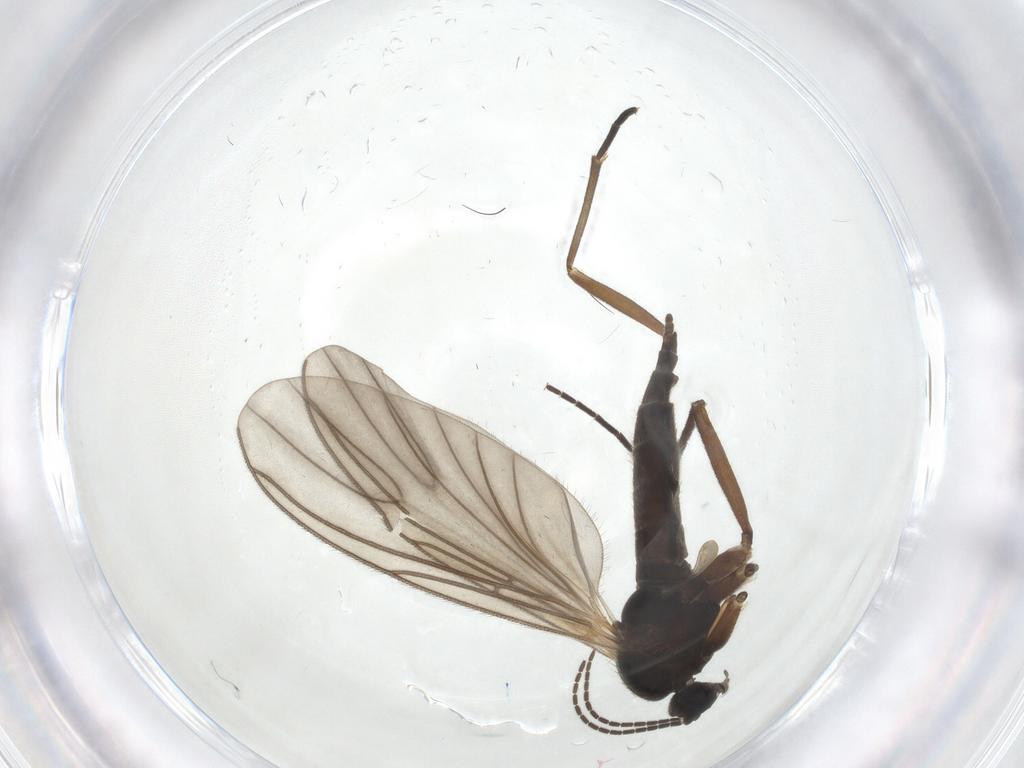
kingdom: Animalia
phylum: Arthropoda
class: Insecta
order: Diptera
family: Sciaridae
